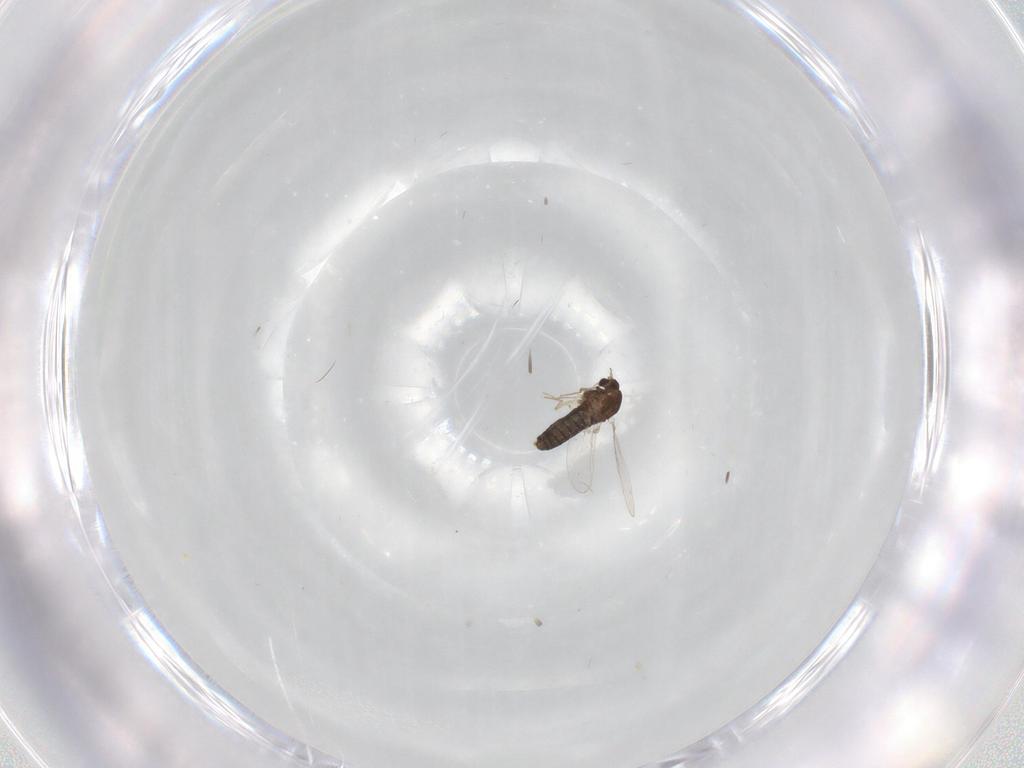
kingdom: Animalia
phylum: Arthropoda
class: Insecta
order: Diptera
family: Chironomidae
